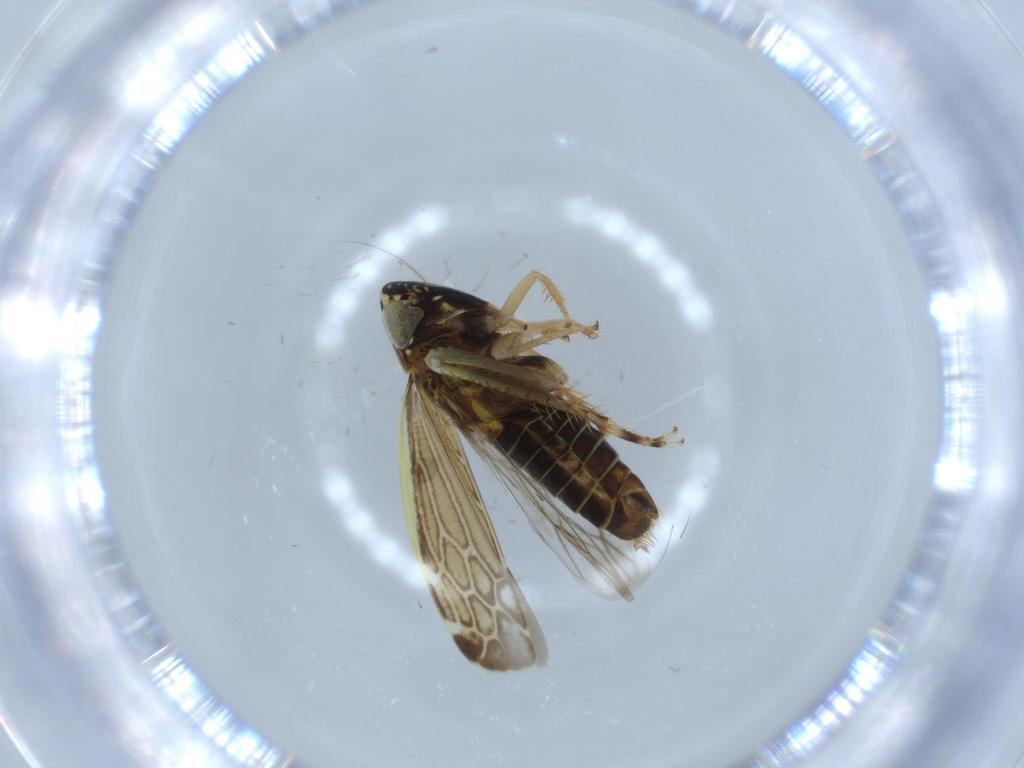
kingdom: Animalia
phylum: Arthropoda
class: Insecta
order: Hemiptera
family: Cicadellidae
